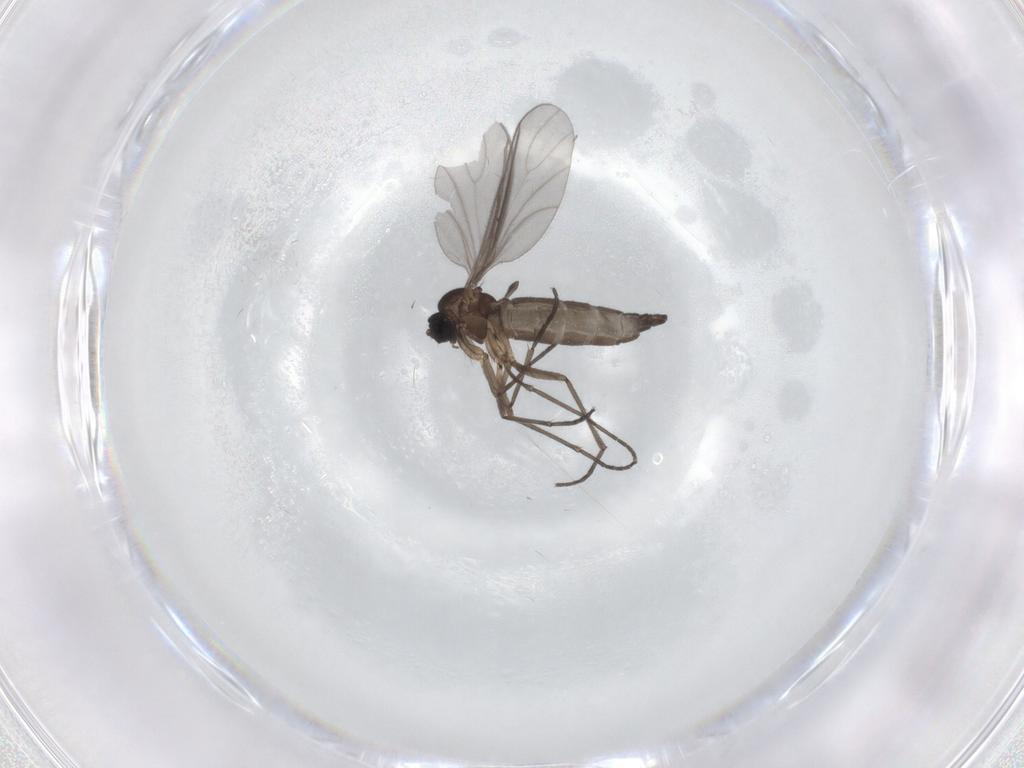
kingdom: Animalia
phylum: Arthropoda
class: Insecta
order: Diptera
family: Sciaridae
